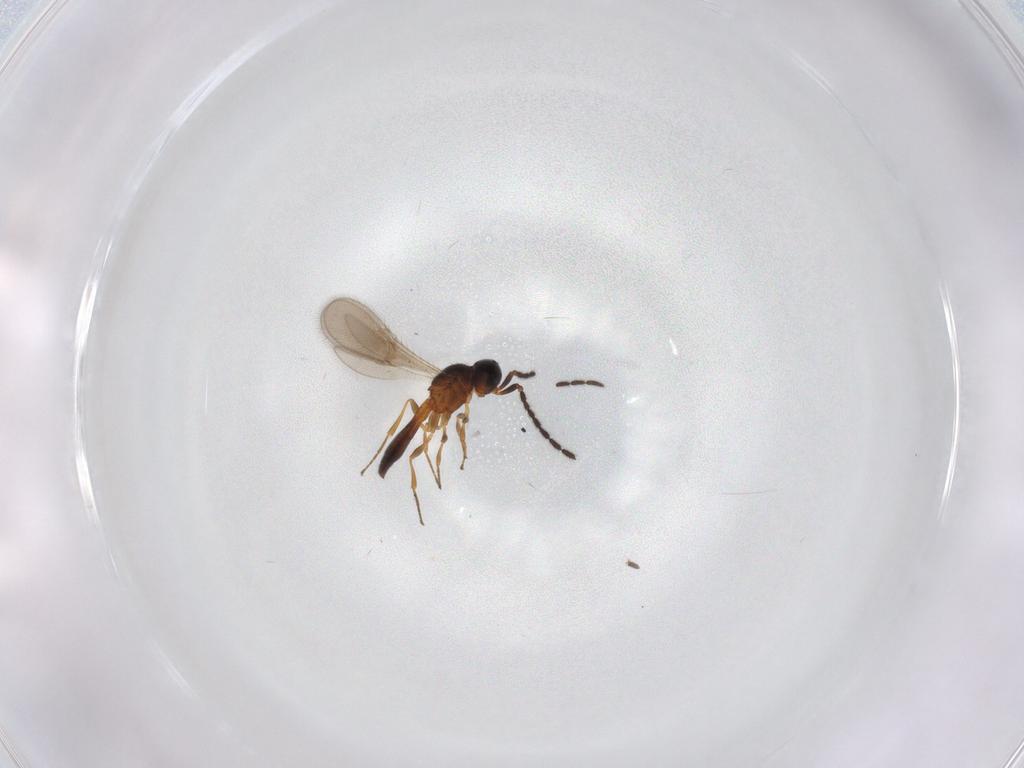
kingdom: Animalia
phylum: Arthropoda
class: Insecta
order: Hymenoptera
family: Scelionidae
